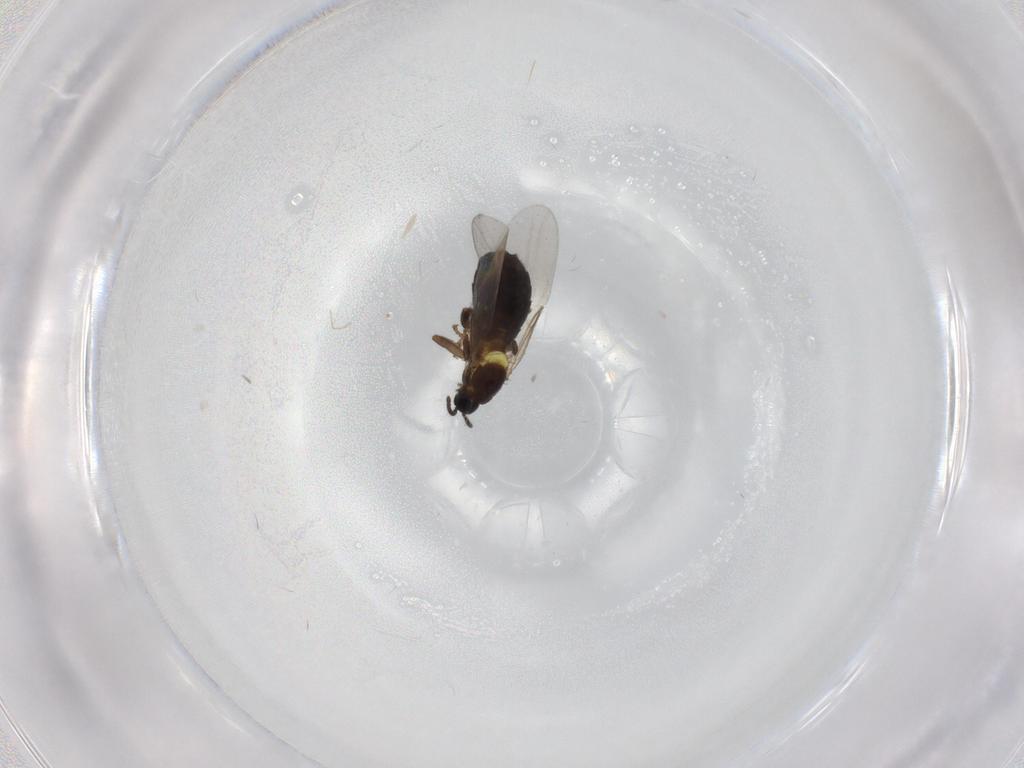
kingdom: Animalia
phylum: Arthropoda
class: Insecta
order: Diptera
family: Scatopsidae
